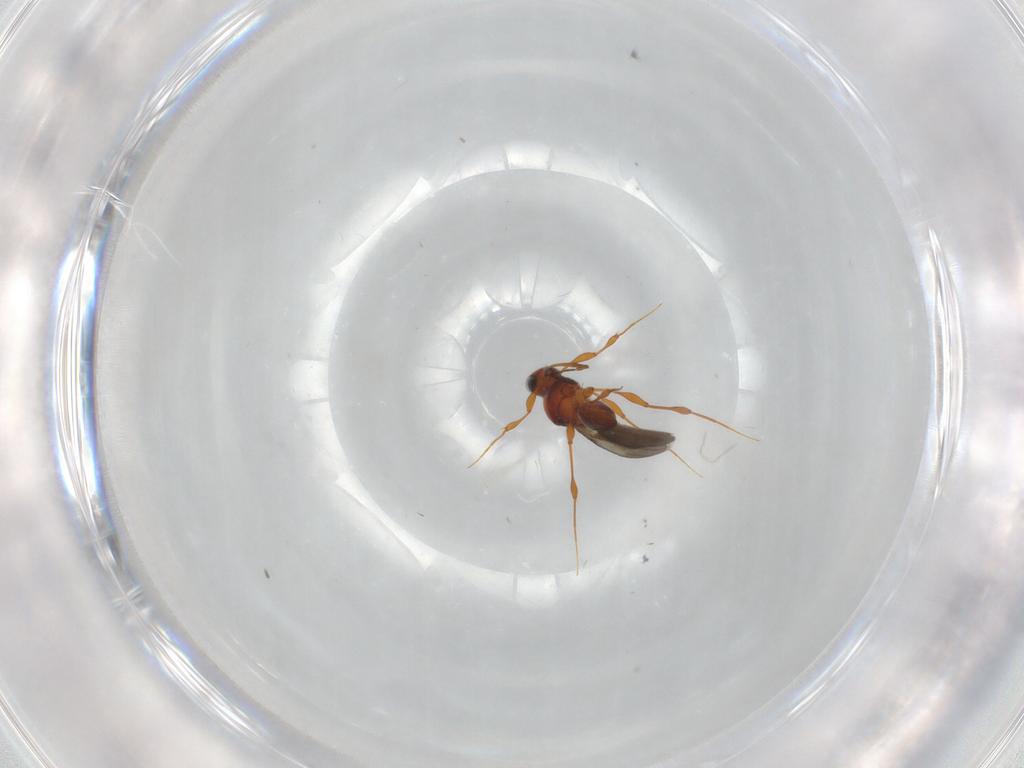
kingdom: Animalia
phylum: Arthropoda
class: Insecta
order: Hymenoptera
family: Platygastridae
